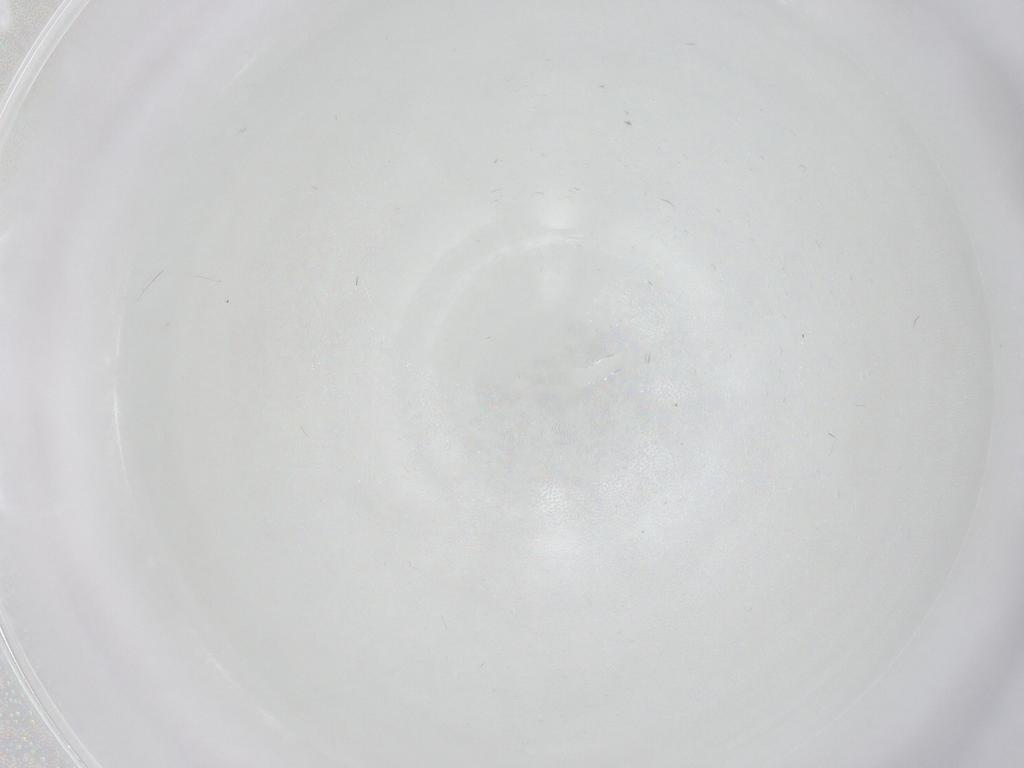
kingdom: Animalia
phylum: Arthropoda
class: Insecta
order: Diptera
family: Cecidomyiidae
